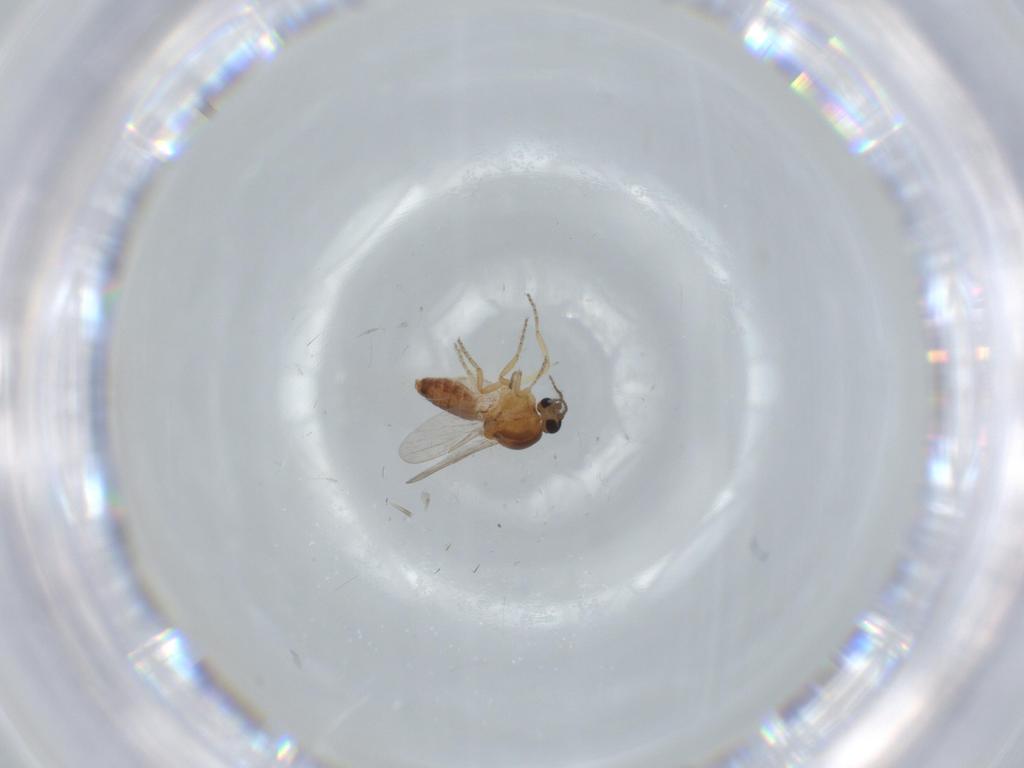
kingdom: Animalia
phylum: Arthropoda
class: Insecta
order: Diptera
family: Ceratopogonidae
